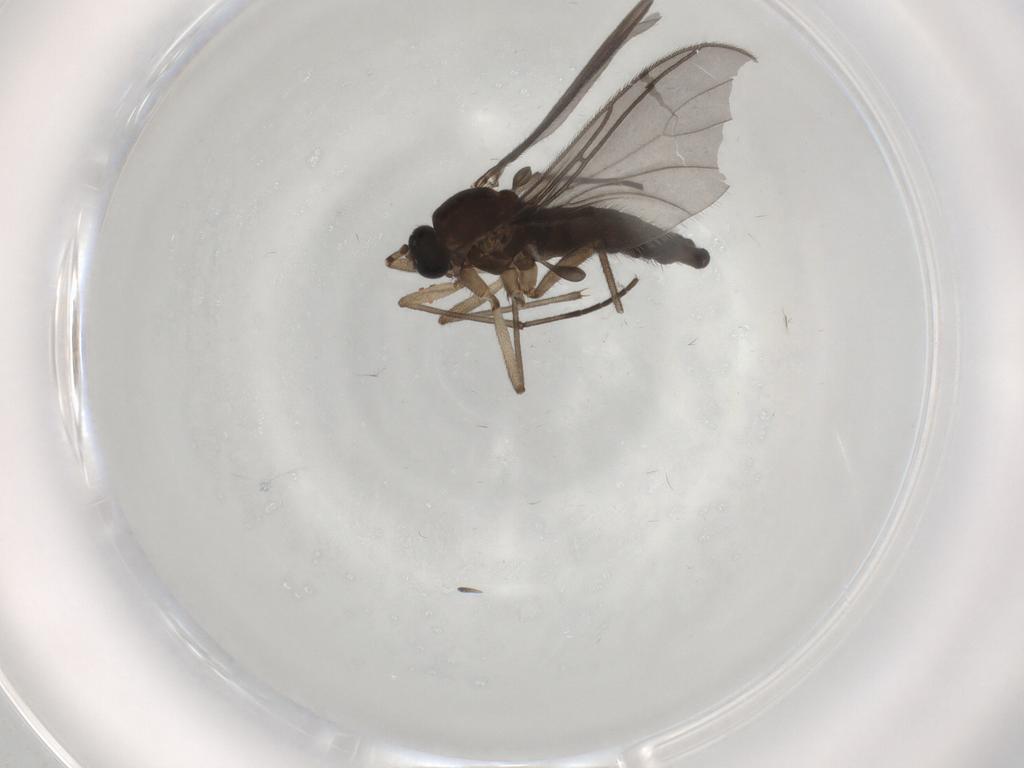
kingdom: Animalia
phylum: Arthropoda
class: Insecta
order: Diptera
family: Sciaridae
